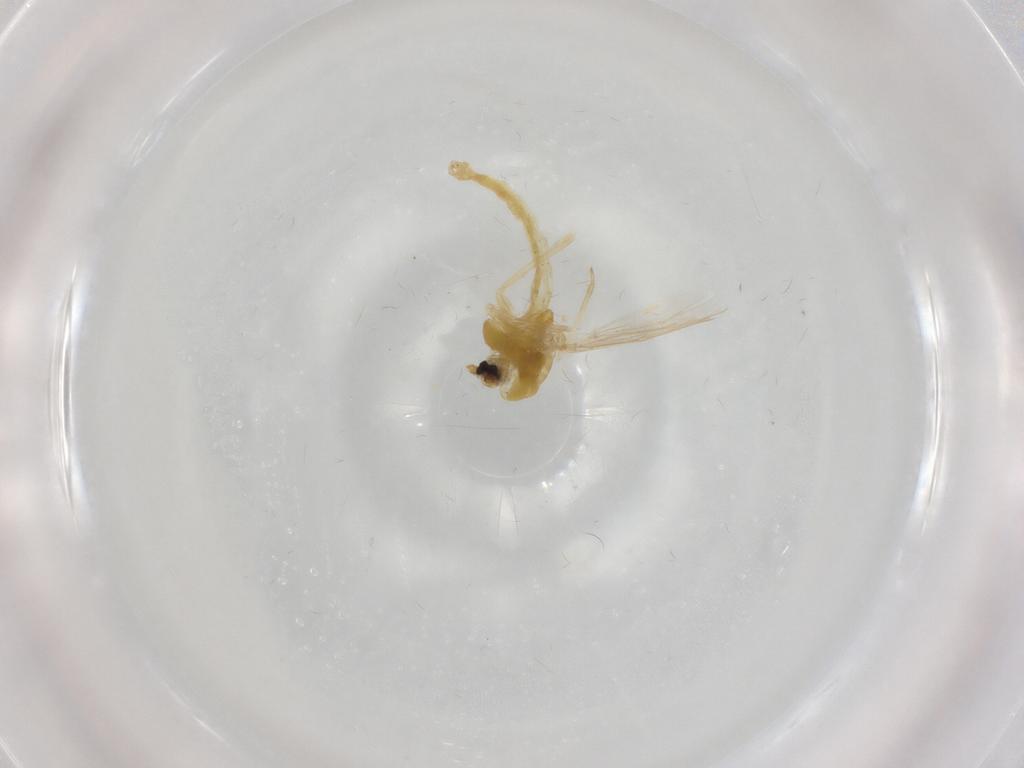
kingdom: Animalia
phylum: Arthropoda
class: Insecta
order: Diptera
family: Chironomidae
